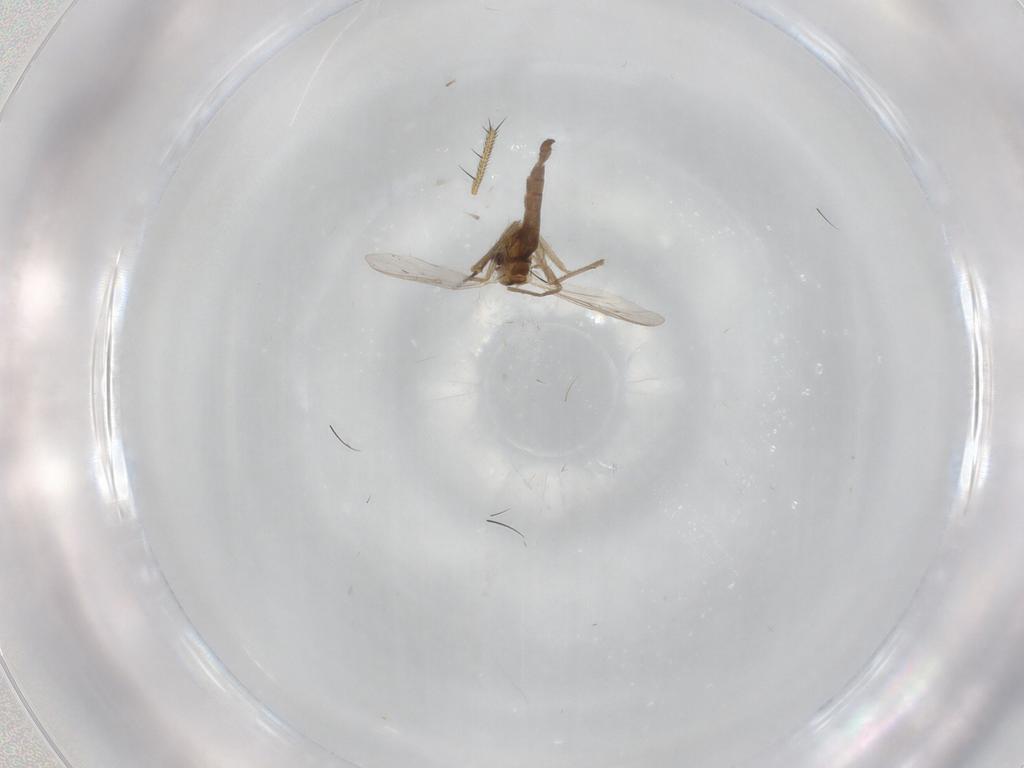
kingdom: Animalia
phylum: Arthropoda
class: Insecta
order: Diptera
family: Chironomidae
